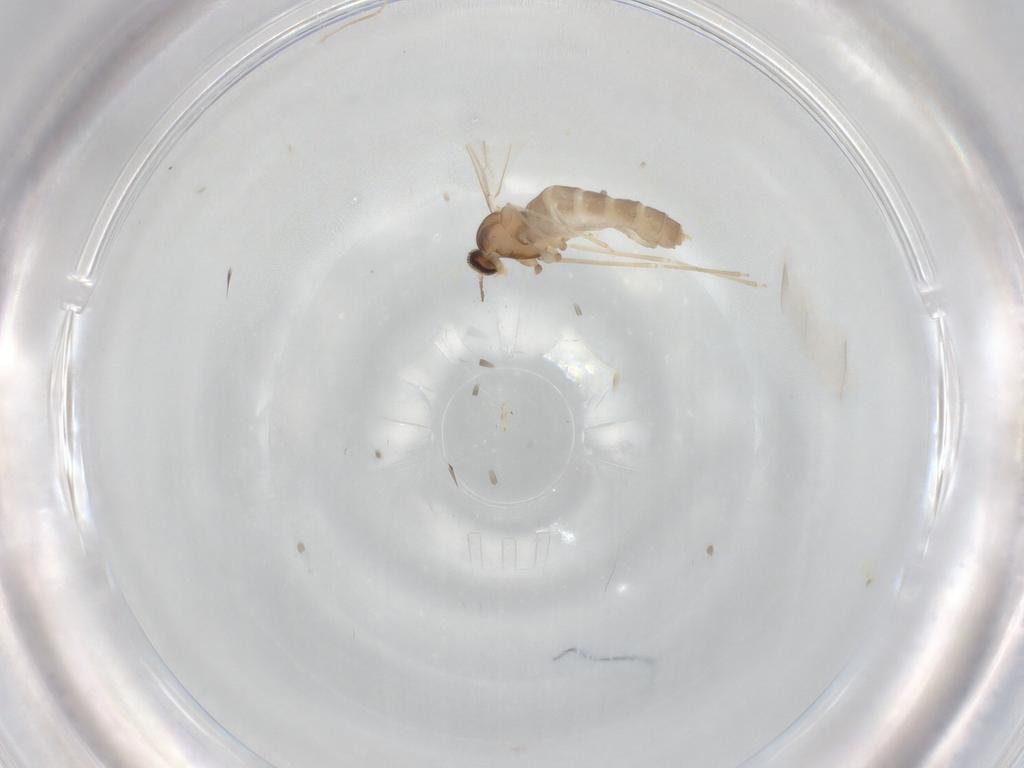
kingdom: Animalia
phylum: Arthropoda
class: Insecta
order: Diptera
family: Cecidomyiidae
